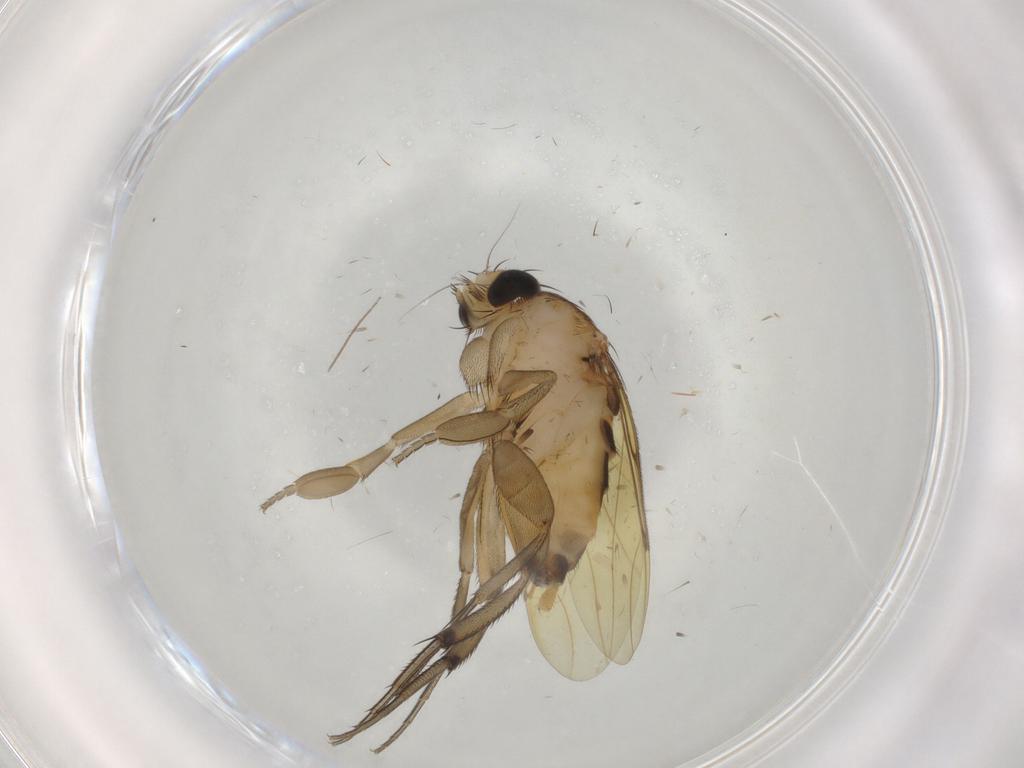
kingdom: Animalia
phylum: Arthropoda
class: Insecta
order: Diptera
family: Phoridae
